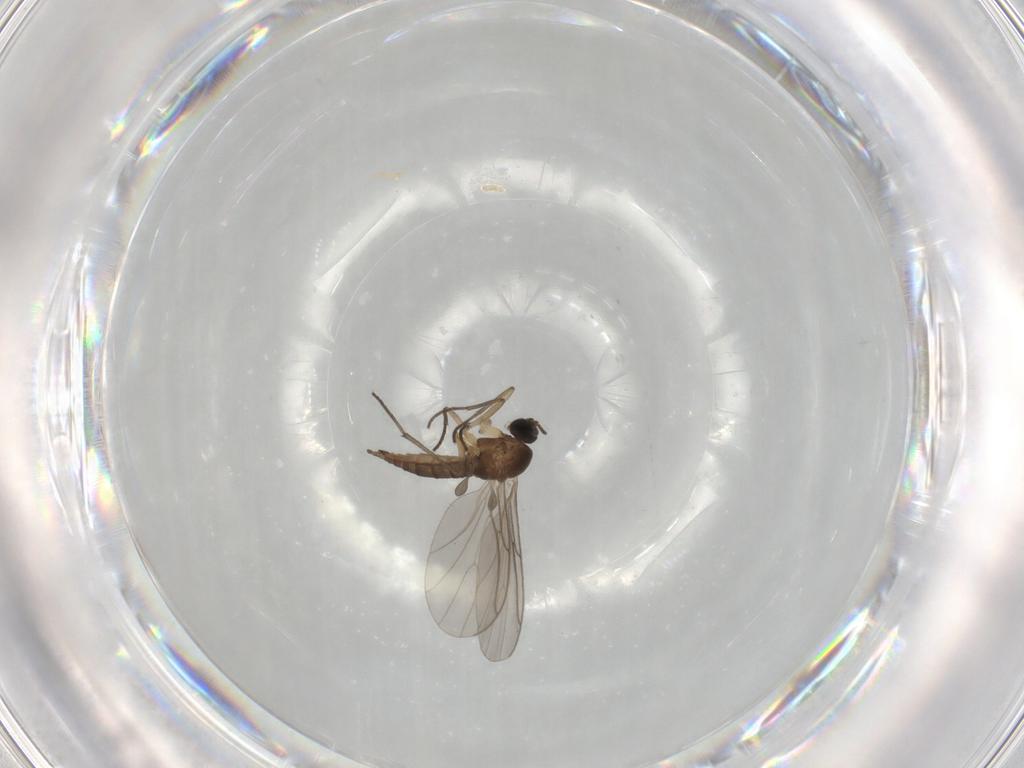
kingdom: Animalia
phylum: Arthropoda
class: Insecta
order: Diptera
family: Sciaridae
